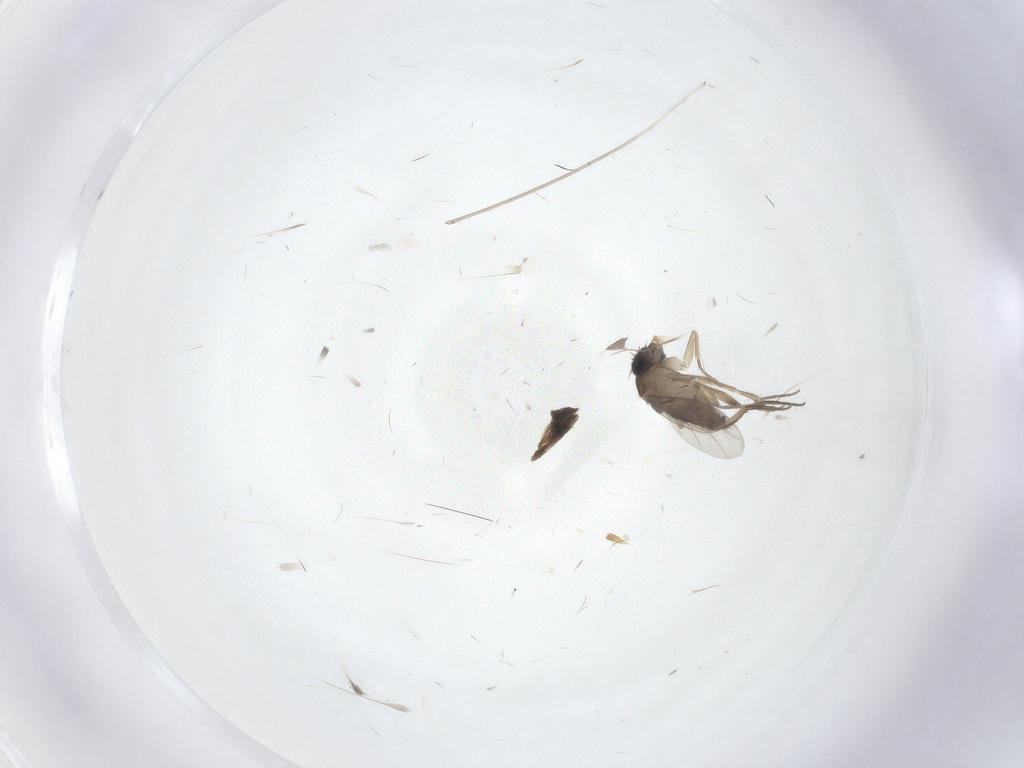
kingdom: Animalia
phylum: Arthropoda
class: Insecta
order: Diptera
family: Phoridae
